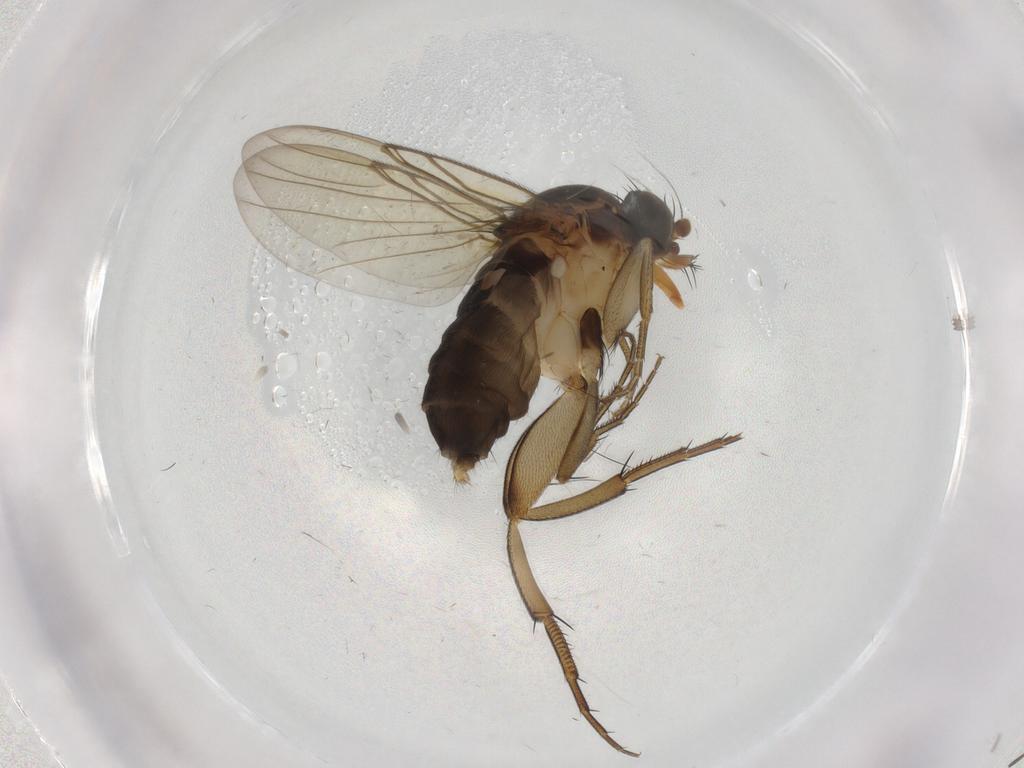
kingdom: Animalia
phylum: Arthropoda
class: Insecta
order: Diptera
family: Phoridae
